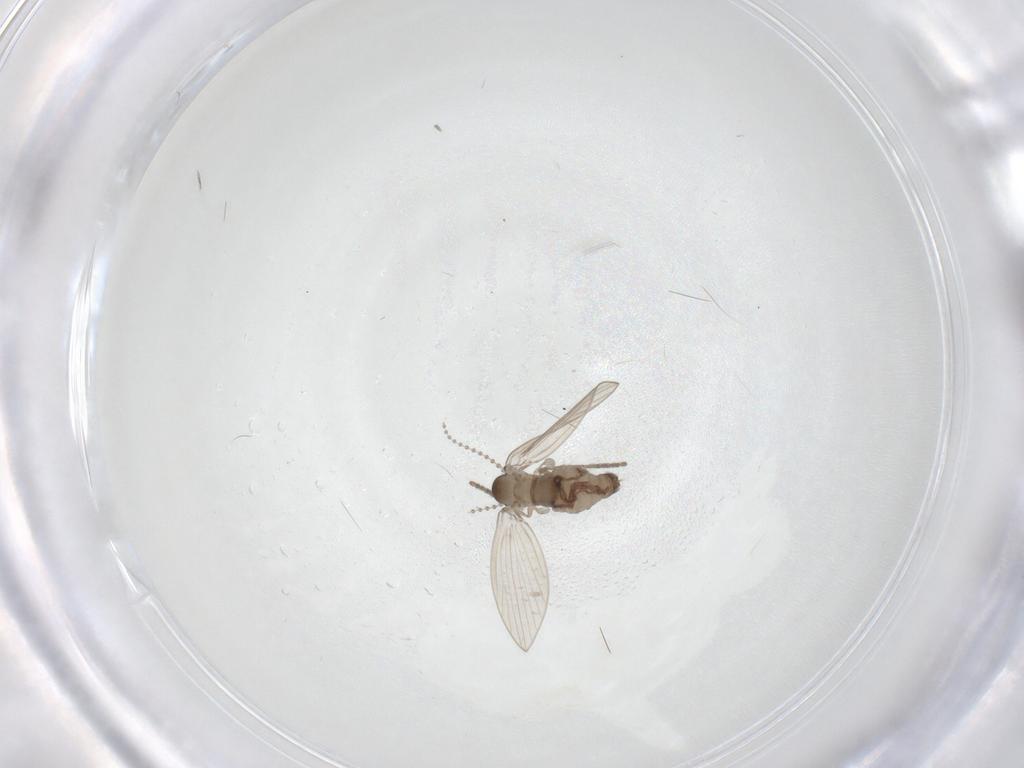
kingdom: Animalia
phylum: Arthropoda
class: Insecta
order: Diptera
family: Psychodidae
